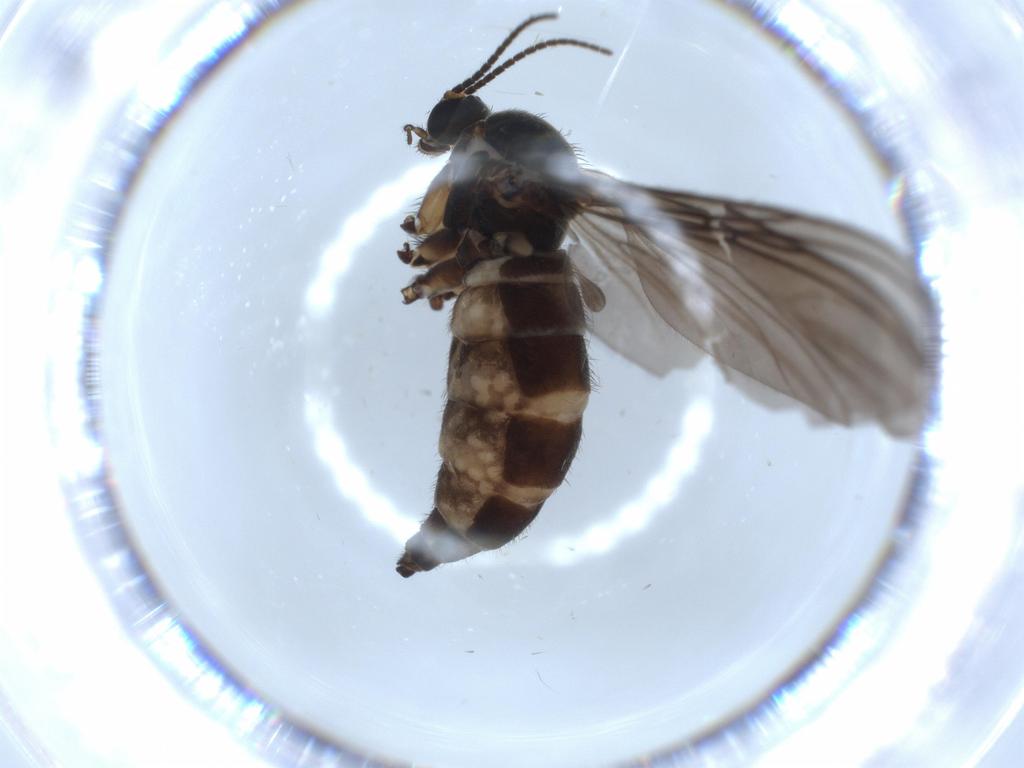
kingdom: Animalia
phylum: Arthropoda
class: Insecta
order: Diptera
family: Sciaridae
